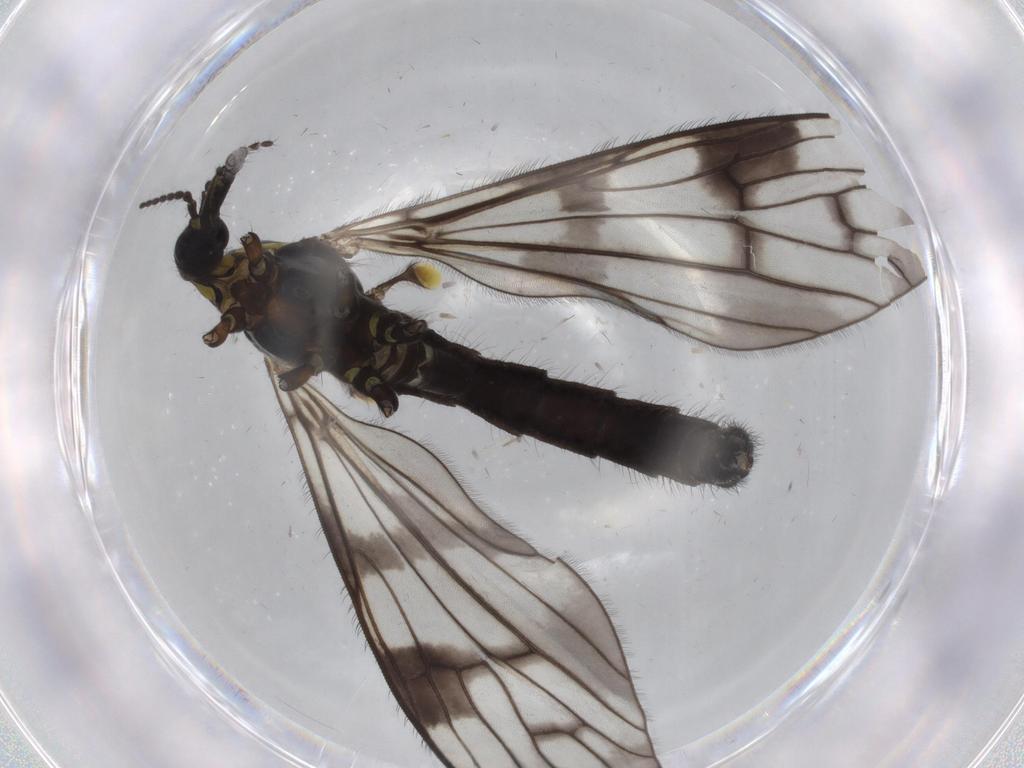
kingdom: Animalia
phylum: Arthropoda
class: Insecta
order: Diptera
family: Limoniidae
